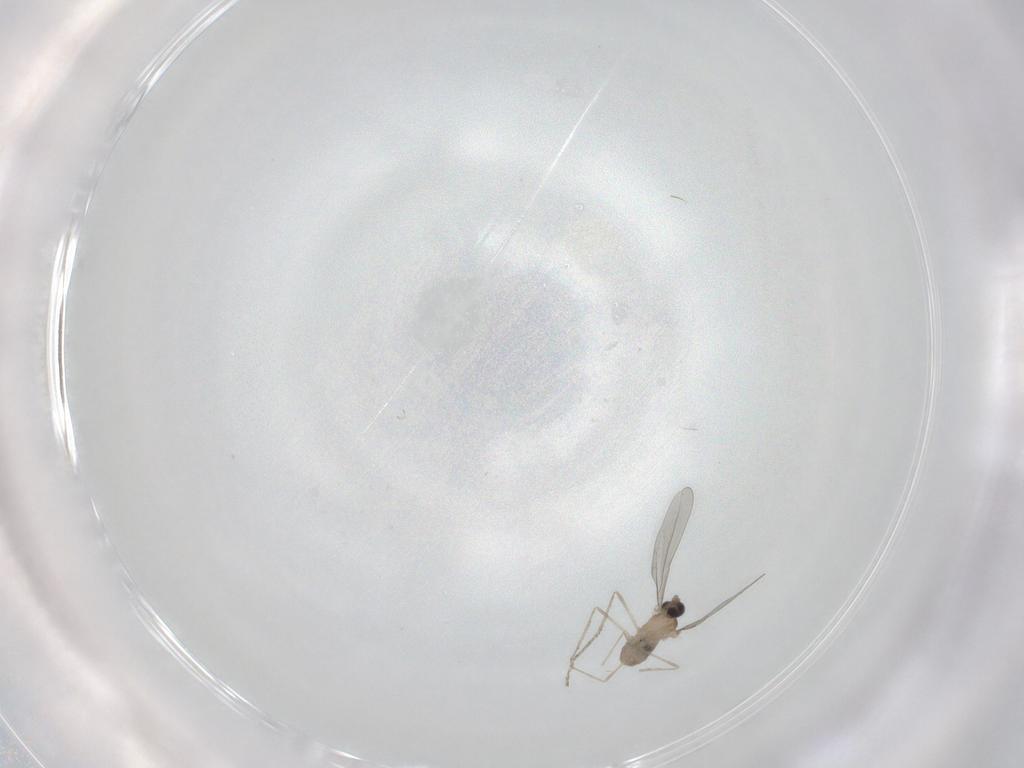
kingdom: Animalia
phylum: Arthropoda
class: Insecta
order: Diptera
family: Cecidomyiidae
